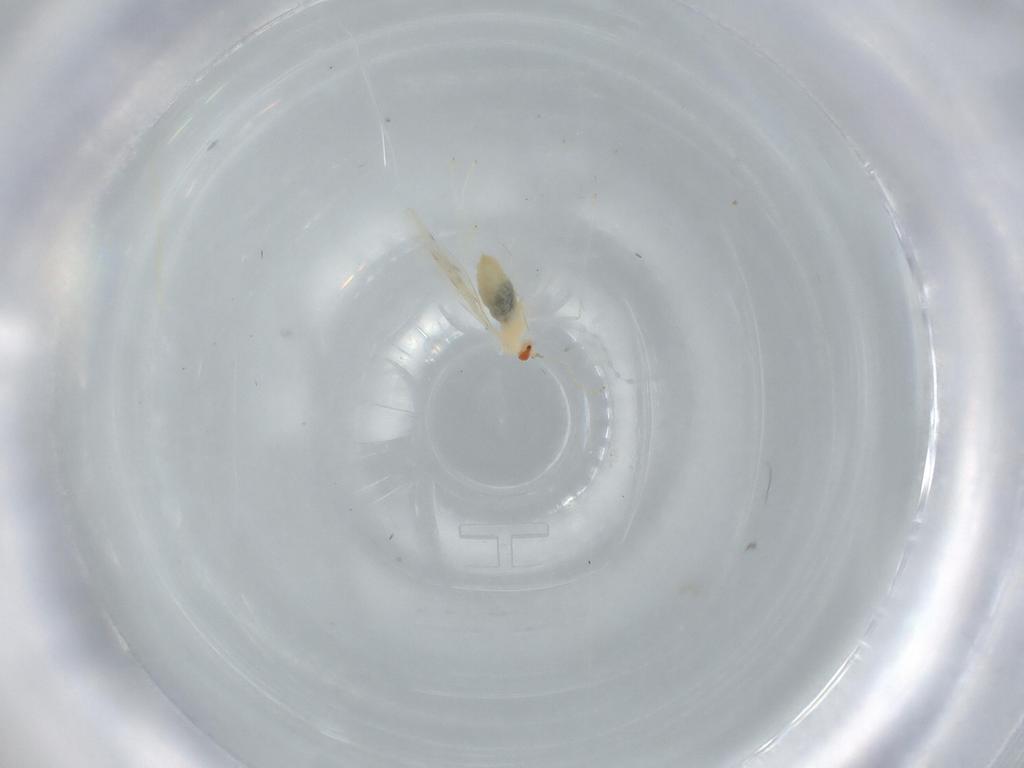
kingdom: Animalia
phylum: Arthropoda
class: Insecta
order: Diptera
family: Cecidomyiidae
